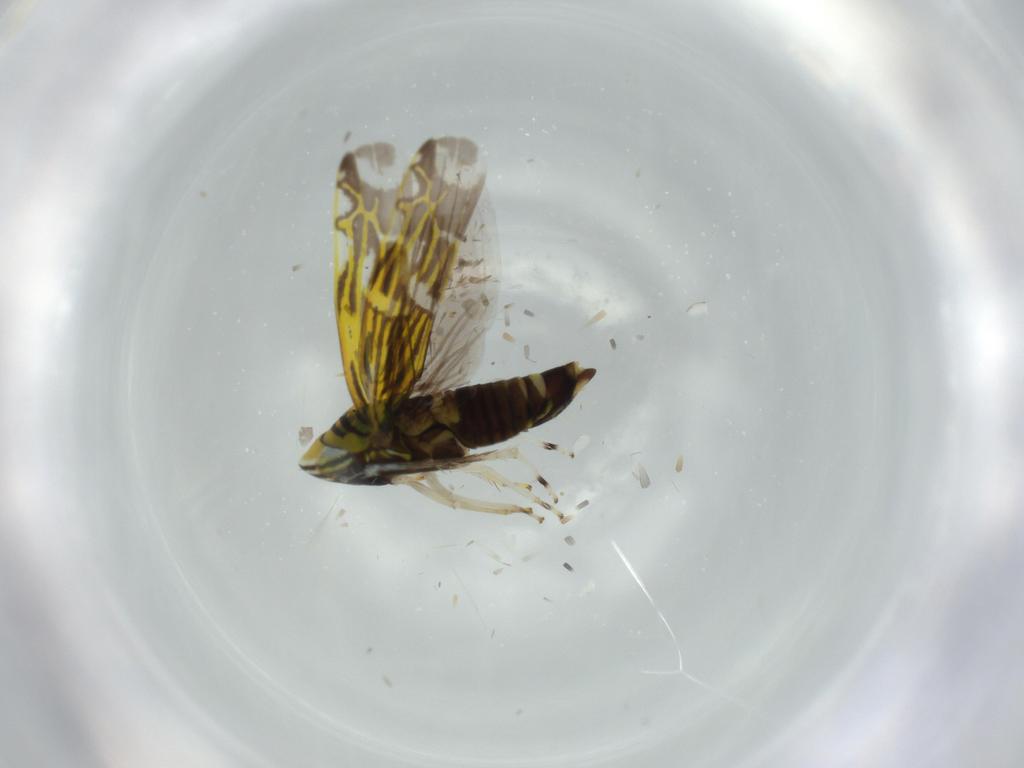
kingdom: Animalia
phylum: Arthropoda
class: Insecta
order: Hemiptera
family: Cicadellidae
